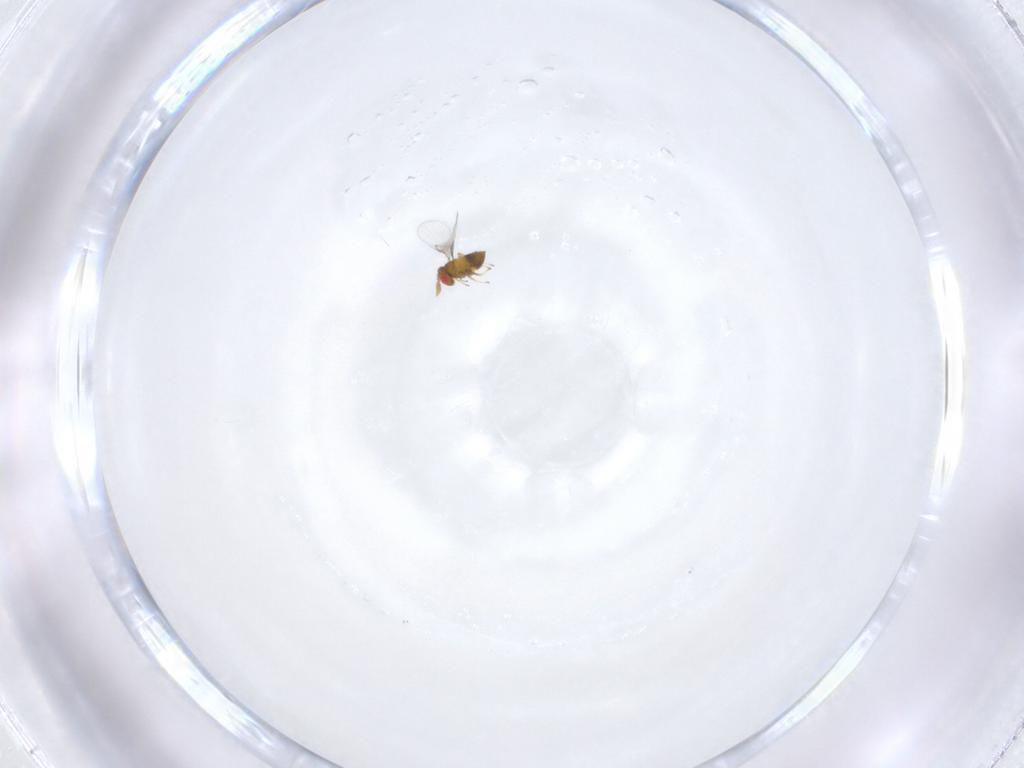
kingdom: Animalia
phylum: Arthropoda
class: Insecta
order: Hymenoptera
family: Trichogrammatidae
